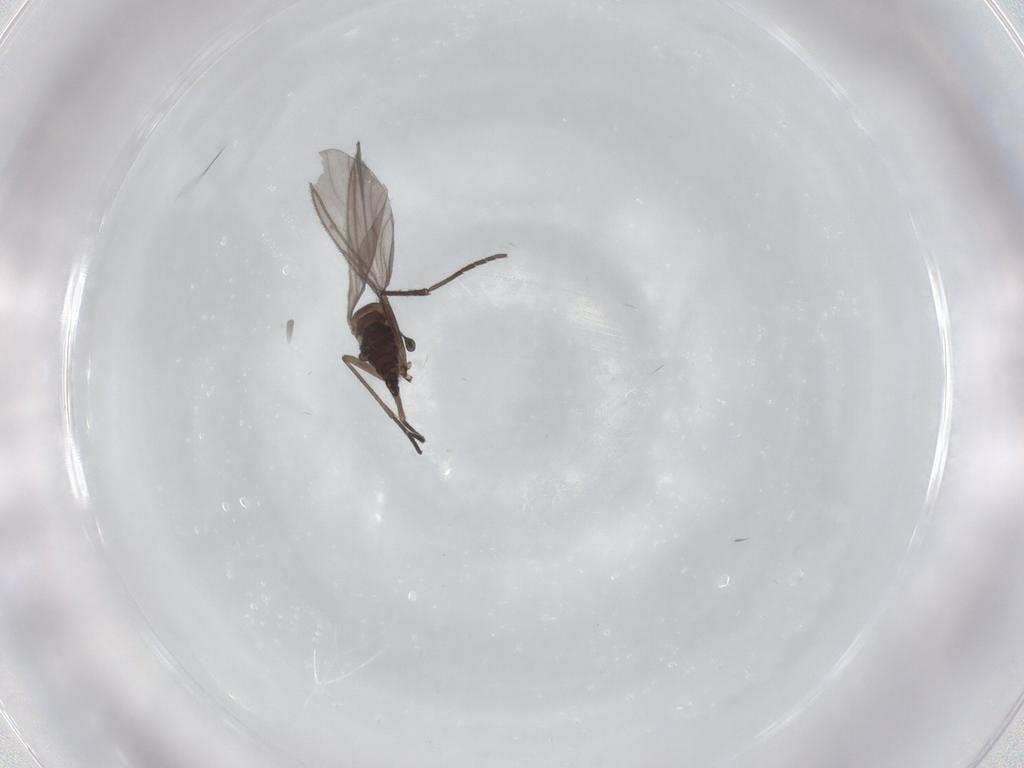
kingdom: Animalia
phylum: Arthropoda
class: Insecta
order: Diptera
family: Sciaridae
